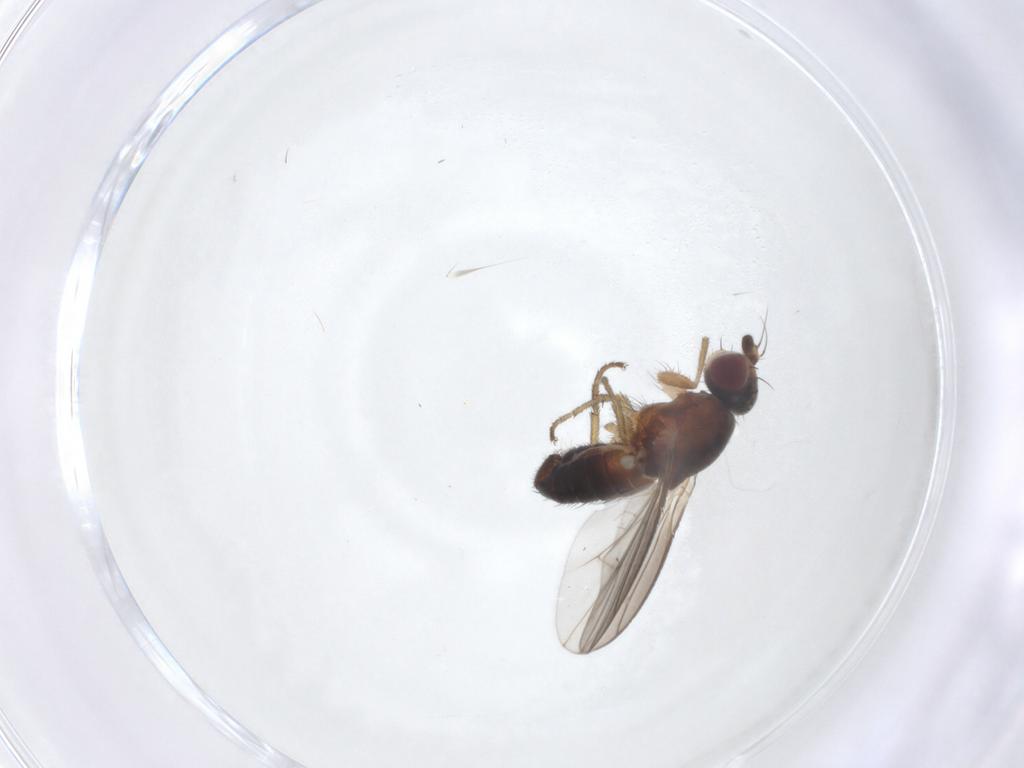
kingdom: Animalia
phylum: Arthropoda
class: Insecta
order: Diptera
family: Heleomyzidae
